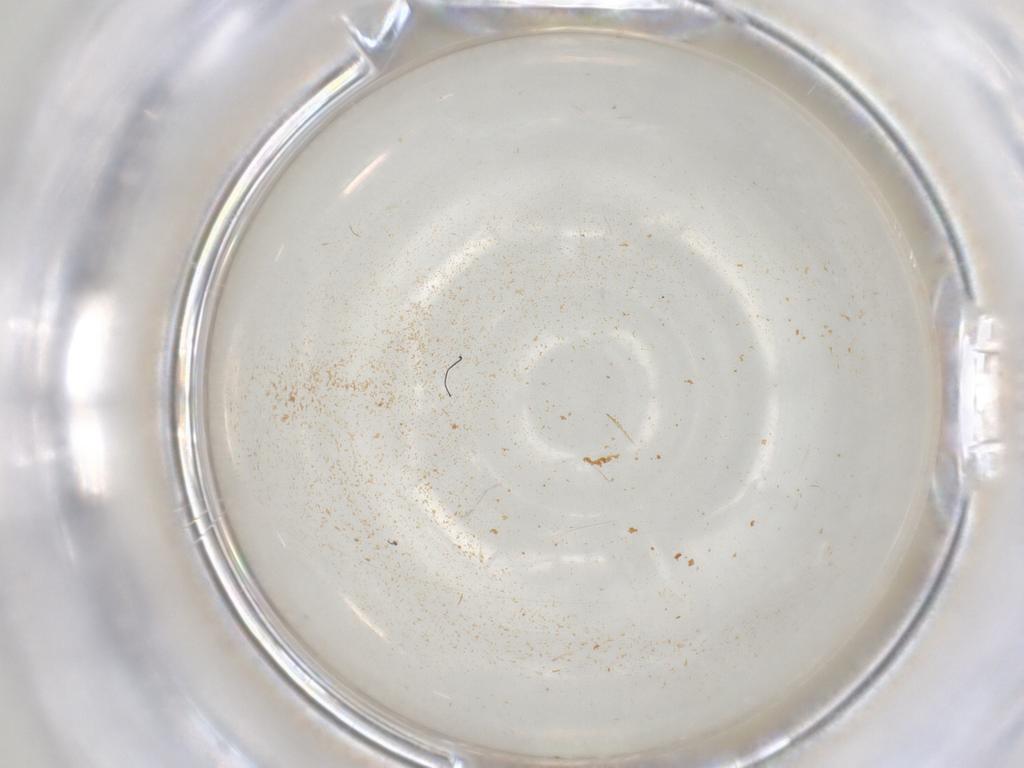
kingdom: Animalia
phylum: Arthropoda
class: Insecta
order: Hymenoptera
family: Scelionidae
